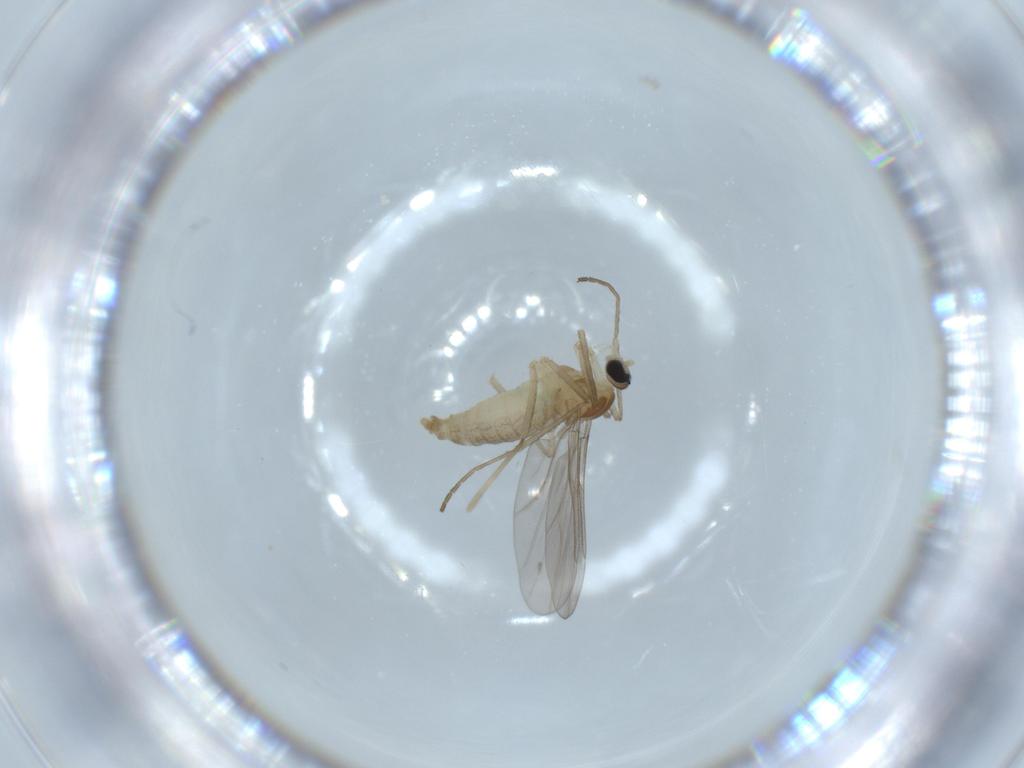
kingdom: Animalia
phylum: Arthropoda
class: Insecta
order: Diptera
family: Cecidomyiidae
